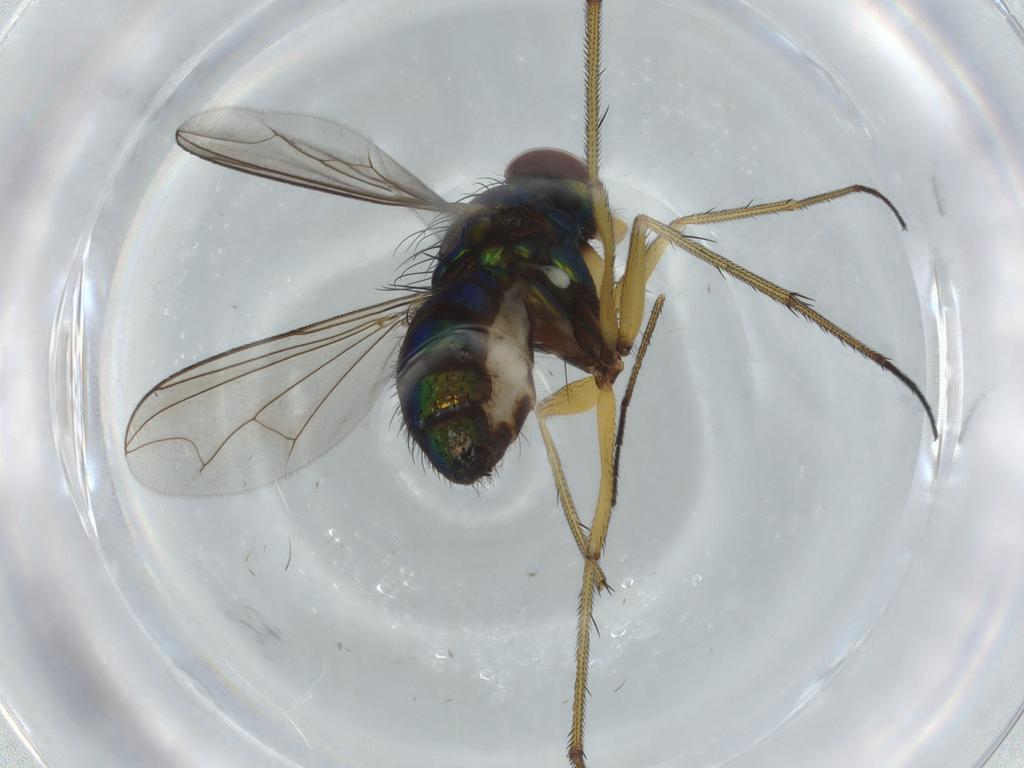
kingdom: Animalia
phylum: Arthropoda
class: Insecta
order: Diptera
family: Dolichopodidae
